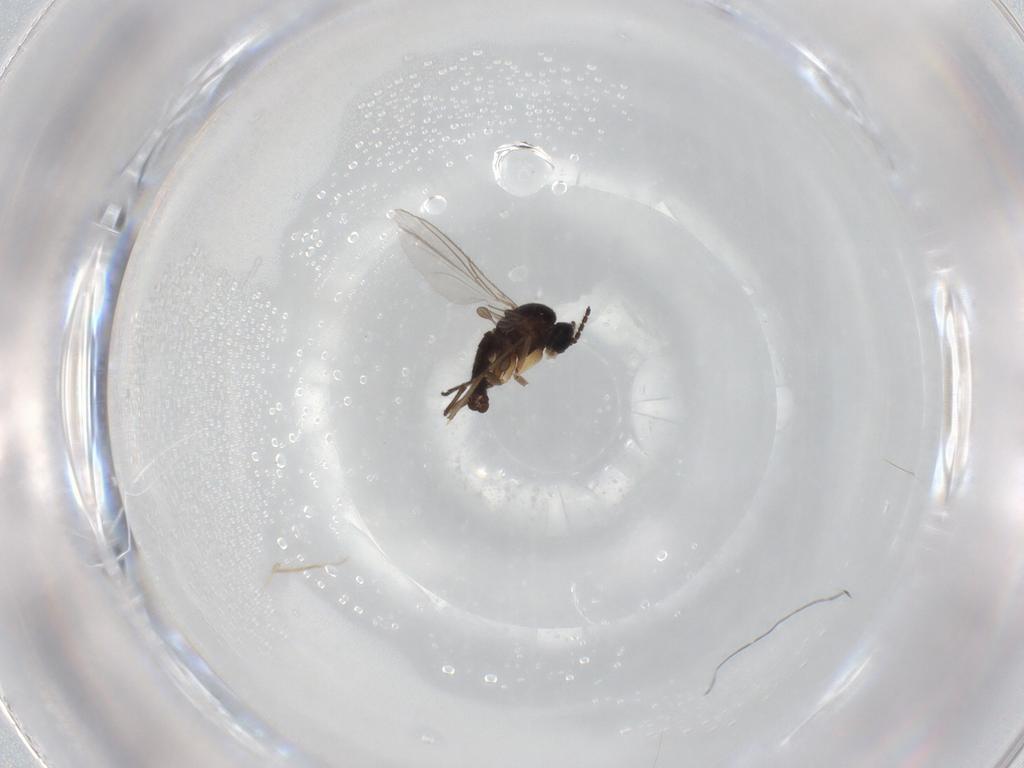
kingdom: Animalia
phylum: Arthropoda
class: Insecta
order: Diptera
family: Sciaridae
